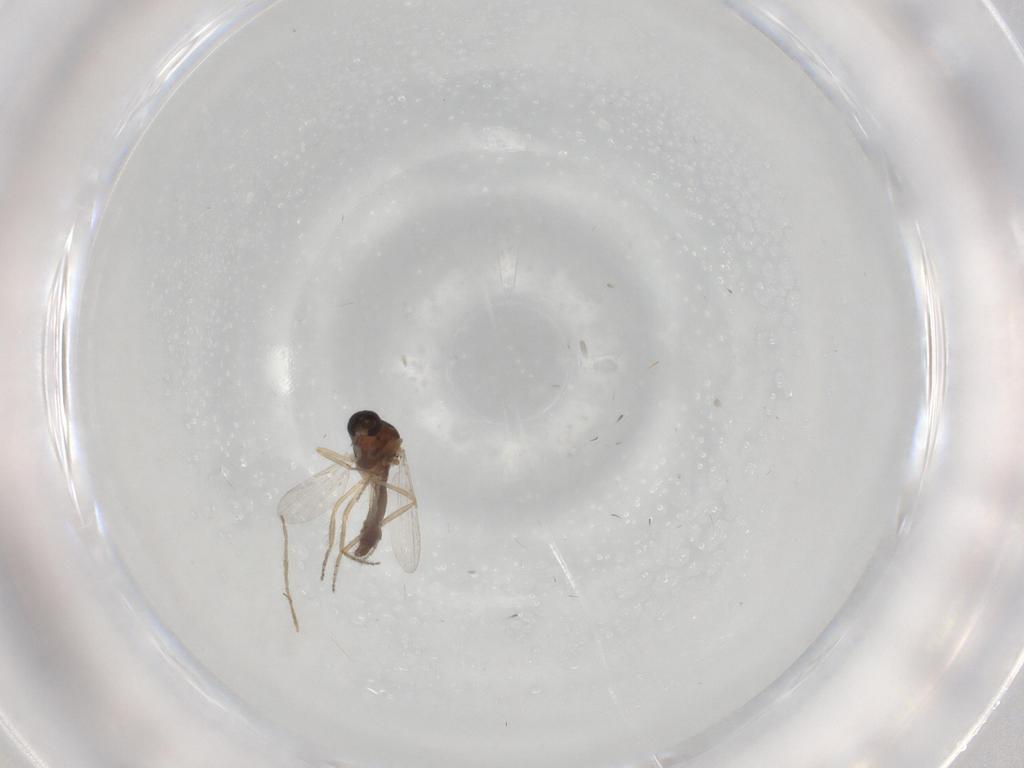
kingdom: Animalia
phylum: Arthropoda
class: Insecta
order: Diptera
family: Ceratopogonidae
